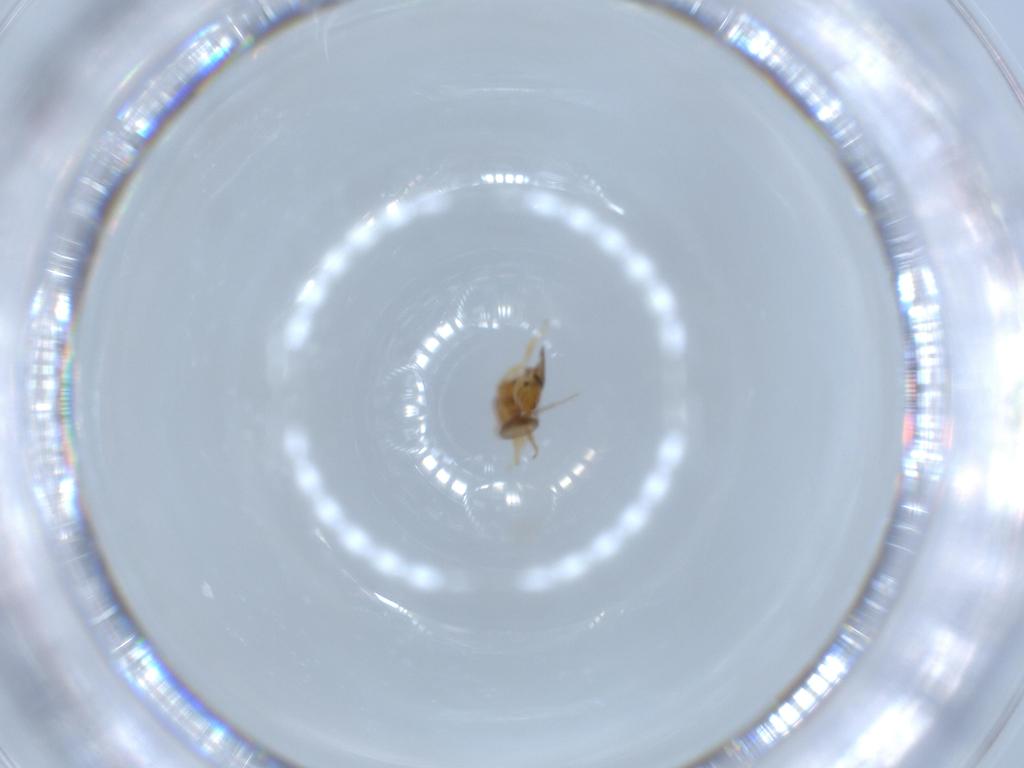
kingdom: Animalia
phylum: Arthropoda
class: Insecta
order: Hymenoptera
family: Scelionidae
